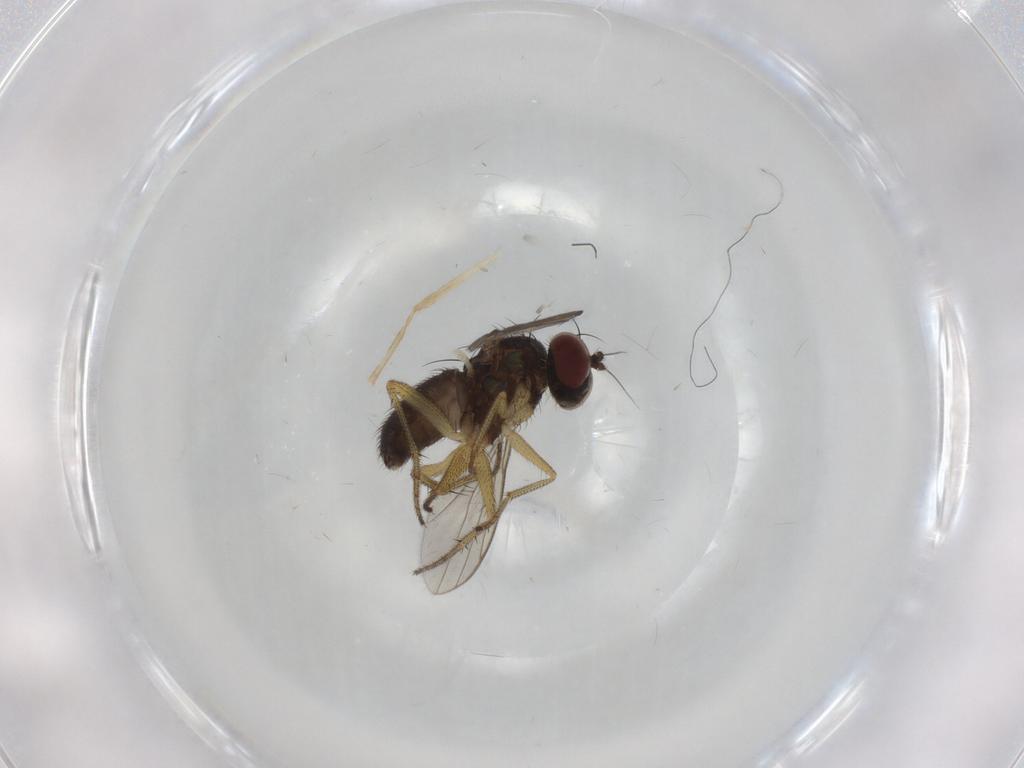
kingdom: Animalia
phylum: Arthropoda
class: Insecta
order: Diptera
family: Chironomidae
